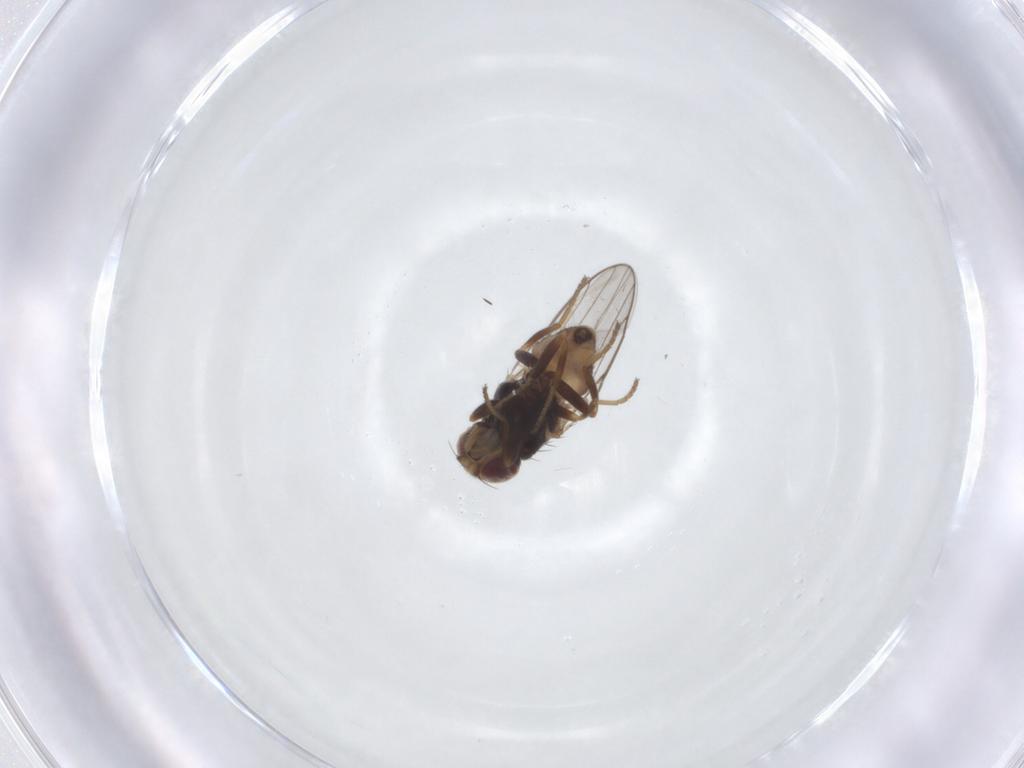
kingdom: Animalia
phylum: Arthropoda
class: Insecta
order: Diptera
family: Chloropidae
